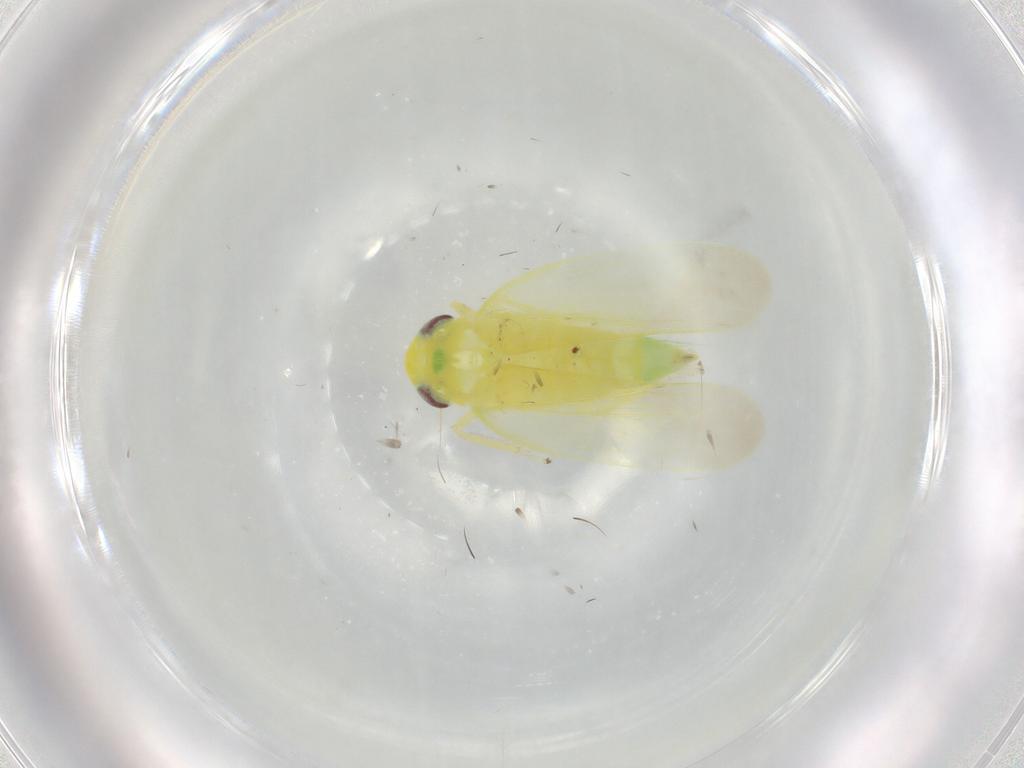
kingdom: Animalia
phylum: Arthropoda
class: Insecta
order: Hemiptera
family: Cicadellidae
